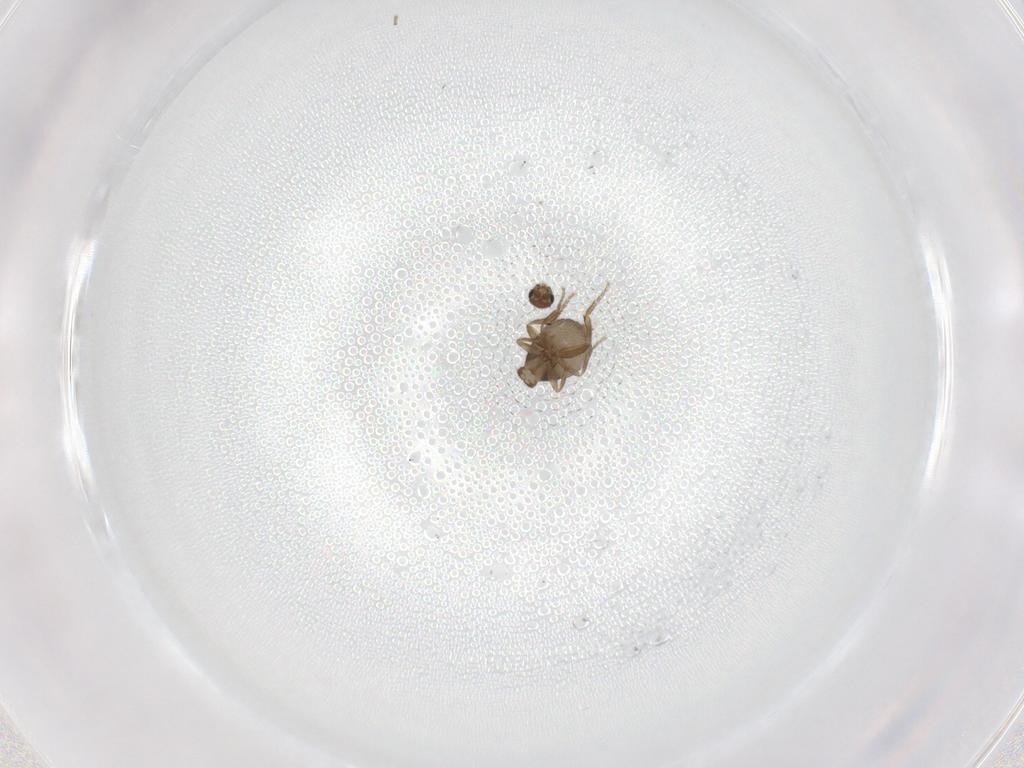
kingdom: Animalia
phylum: Arthropoda
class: Insecta
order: Diptera
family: Phoridae
